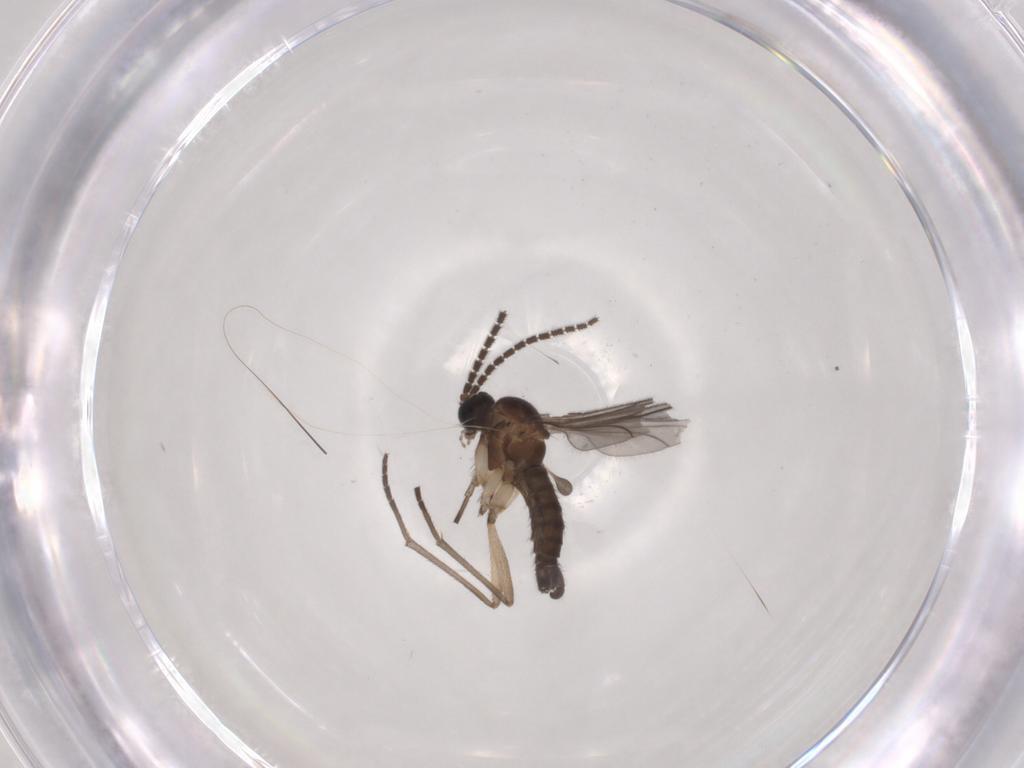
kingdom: Animalia
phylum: Arthropoda
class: Insecta
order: Diptera
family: Sciaridae
